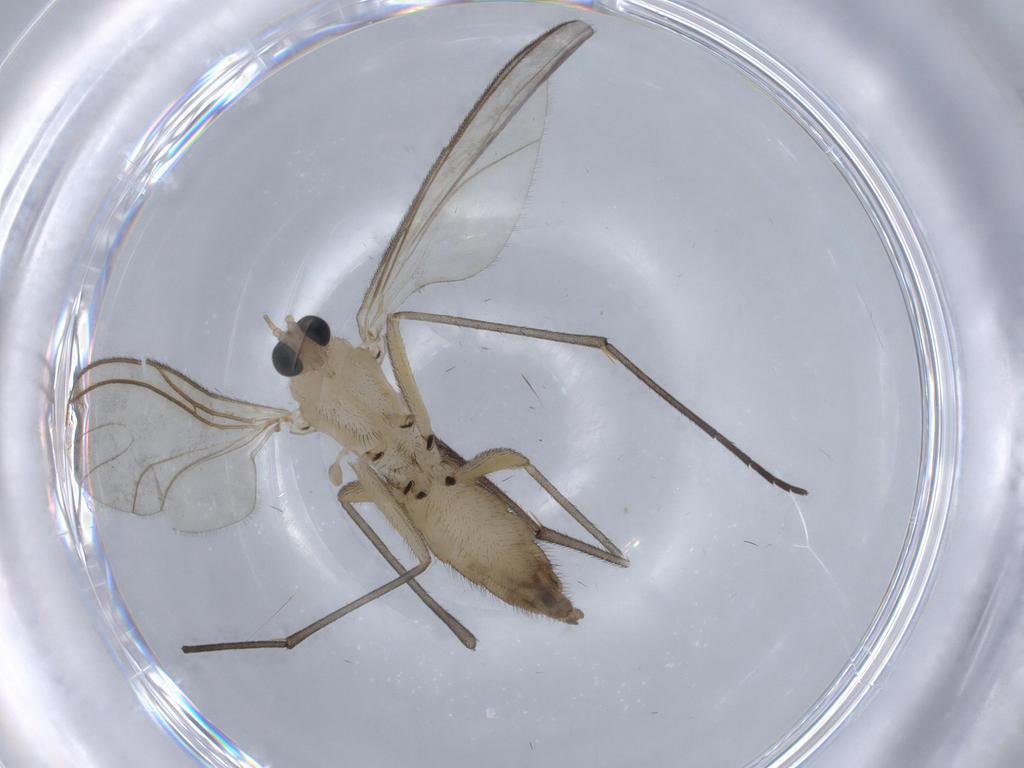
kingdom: Animalia
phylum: Arthropoda
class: Insecta
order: Diptera
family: Sciaridae
